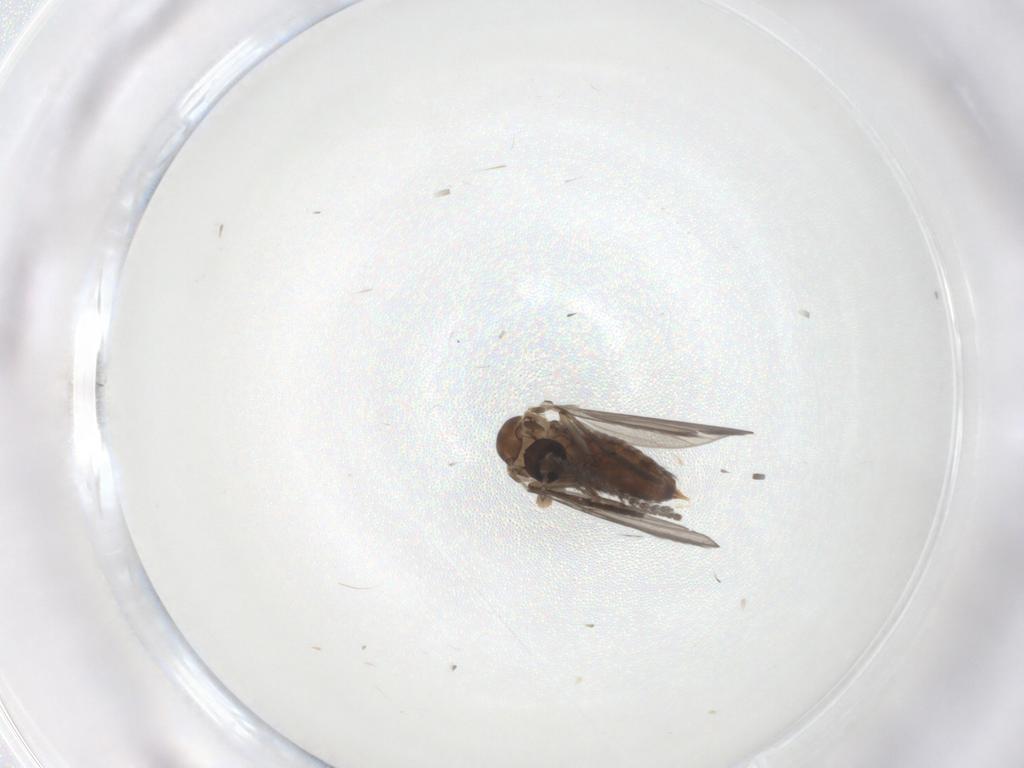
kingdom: Animalia
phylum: Arthropoda
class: Insecta
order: Diptera
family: Psychodidae
